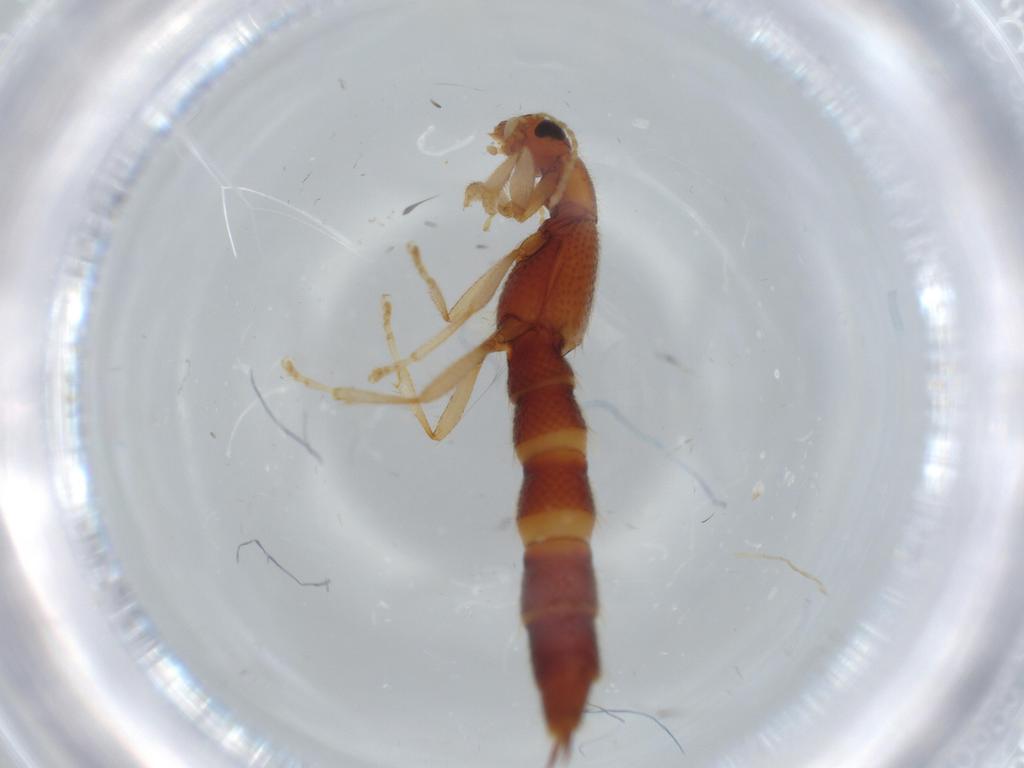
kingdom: Animalia
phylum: Arthropoda
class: Insecta
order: Coleoptera
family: Staphylinidae
